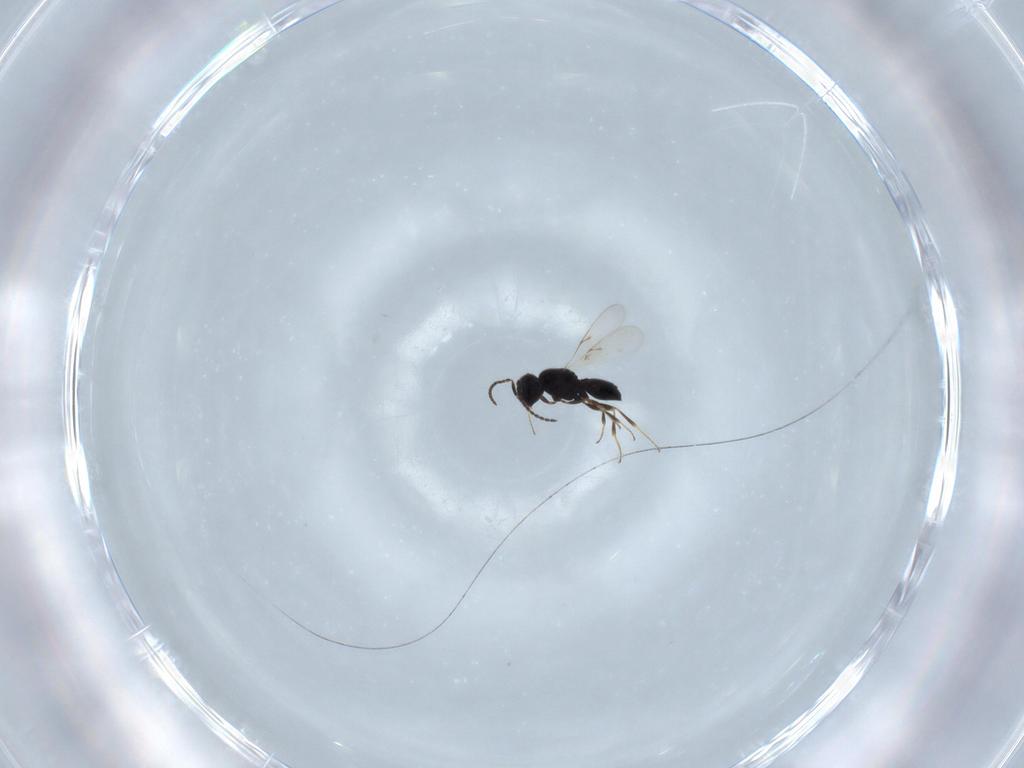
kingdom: Animalia
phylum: Arthropoda
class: Insecta
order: Hymenoptera
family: Scelionidae
